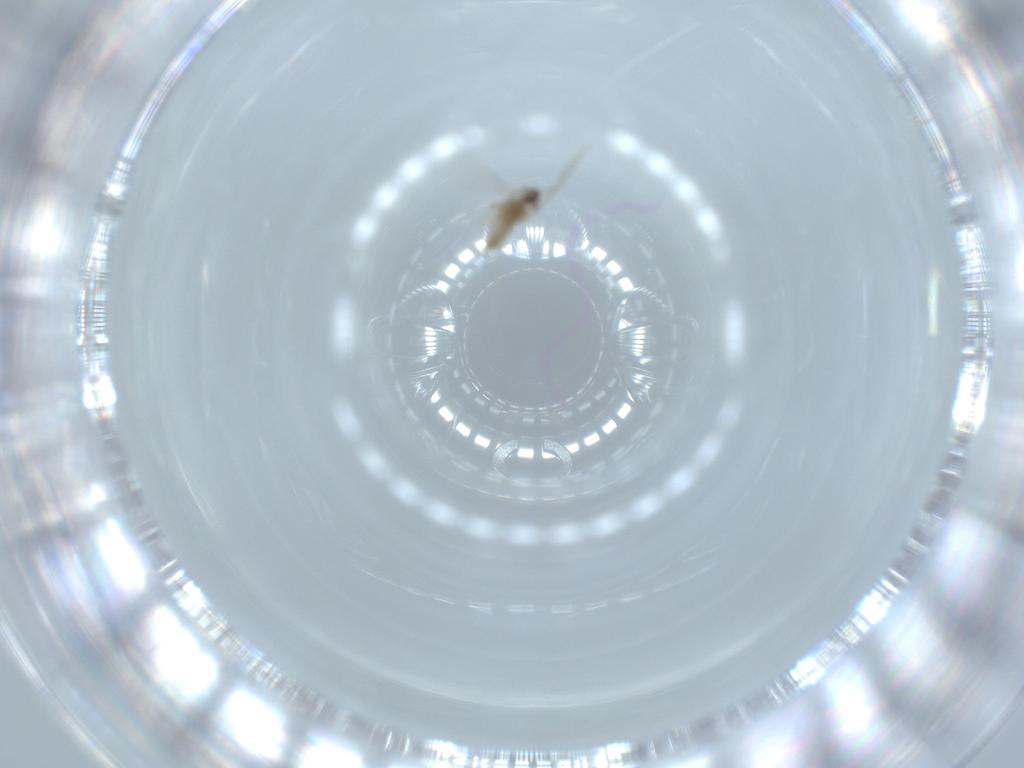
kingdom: Animalia
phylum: Arthropoda
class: Insecta
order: Diptera
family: Cecidomyiidae
